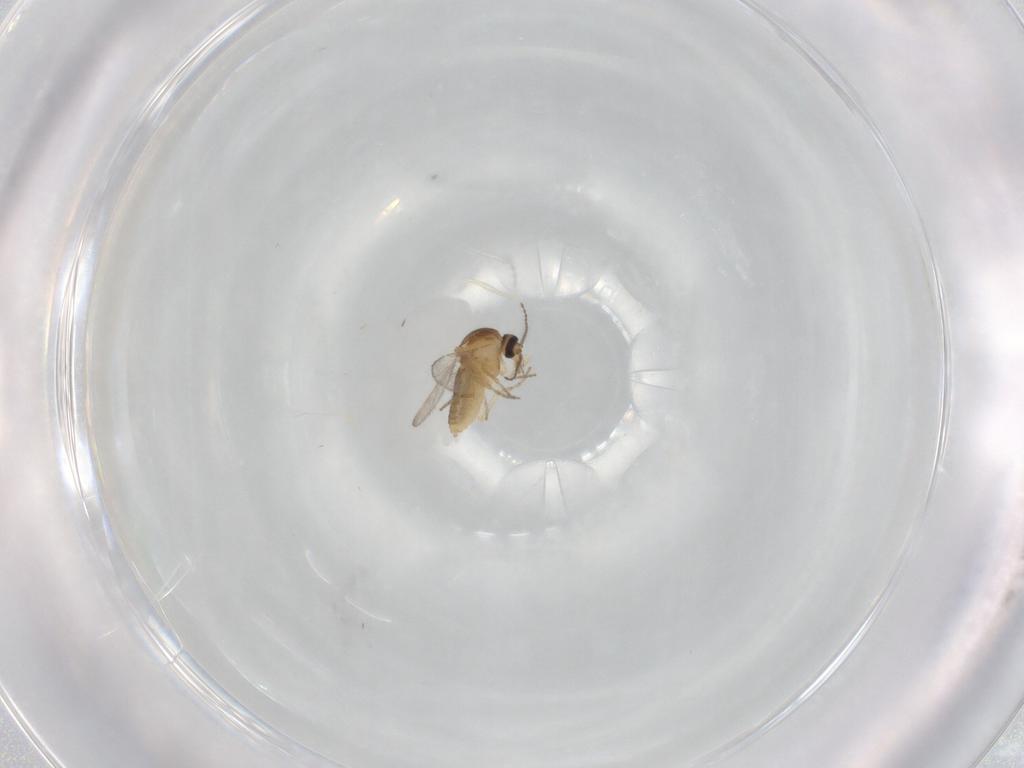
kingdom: Animalia
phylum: Arthropoda
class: Insecta
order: Diptera
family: Ceratopogonidae
